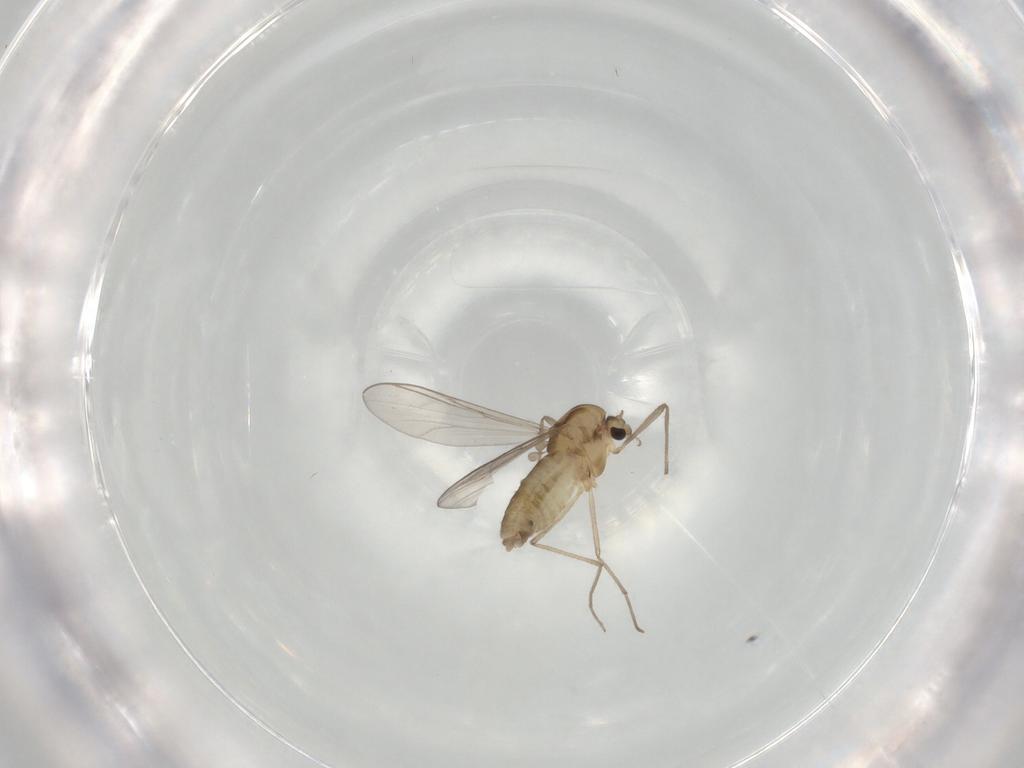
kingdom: Animalia
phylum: Arthropoda
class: Insecta
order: Diptera
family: Chironomidae
